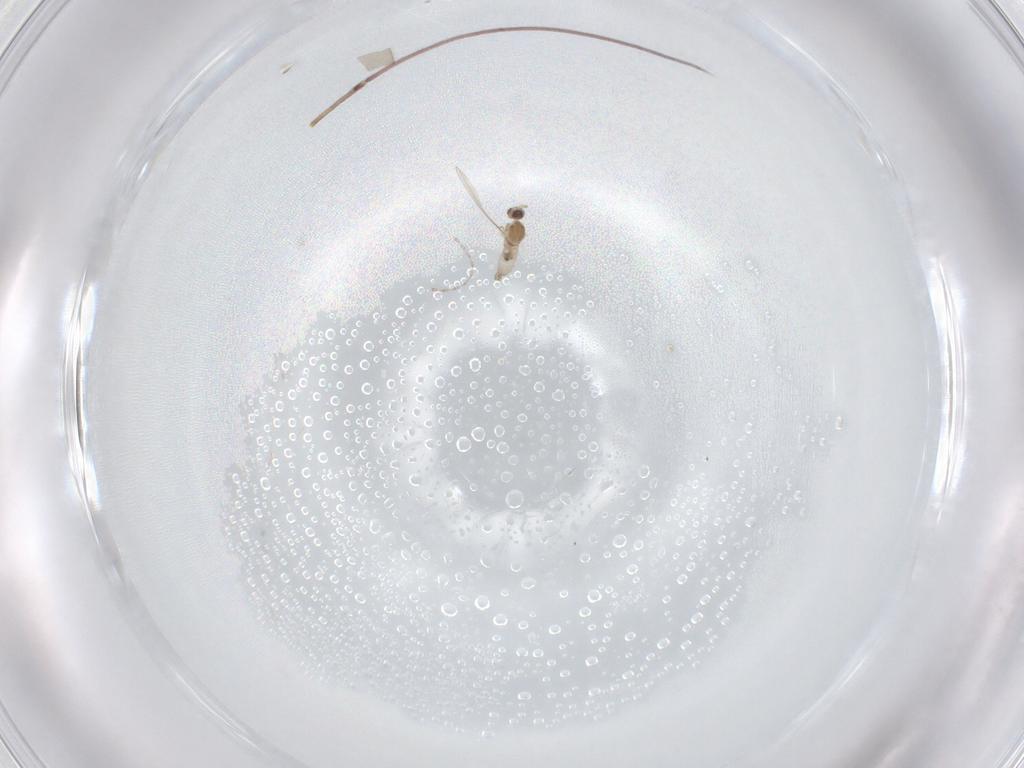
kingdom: Animalia
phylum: Arthropoda
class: Insecta
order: Diptera
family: Cecidomyiidae
